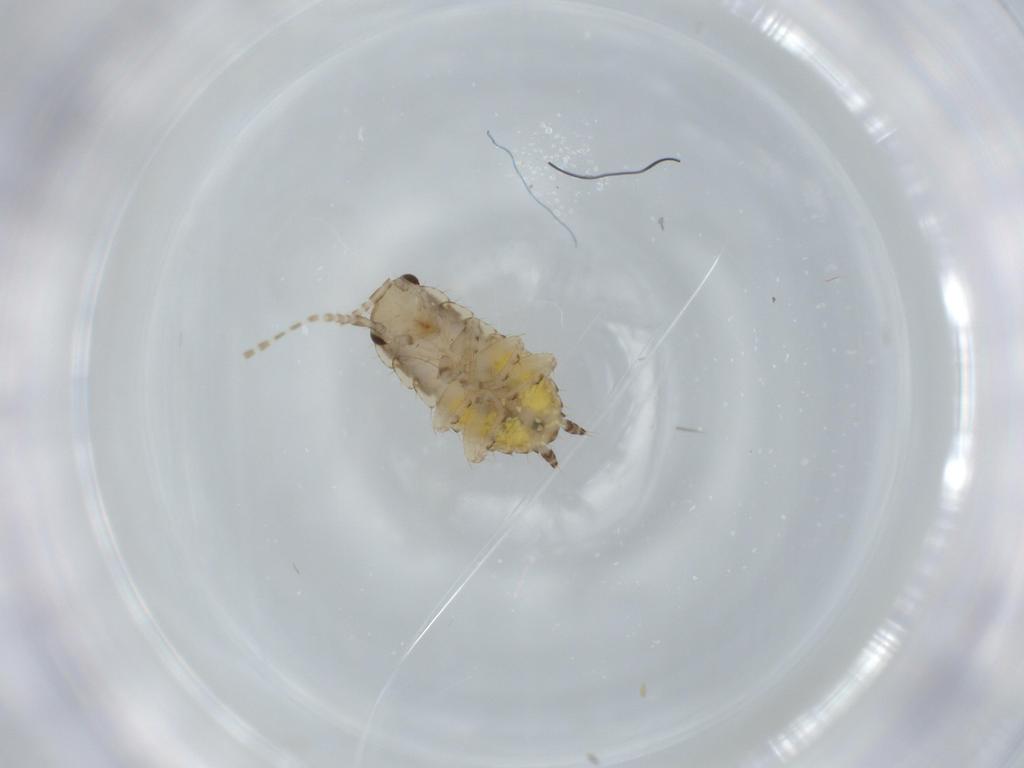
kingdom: Animalia
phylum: Arthropoda
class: Insecta
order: Blattodea
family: Ectobiidae
